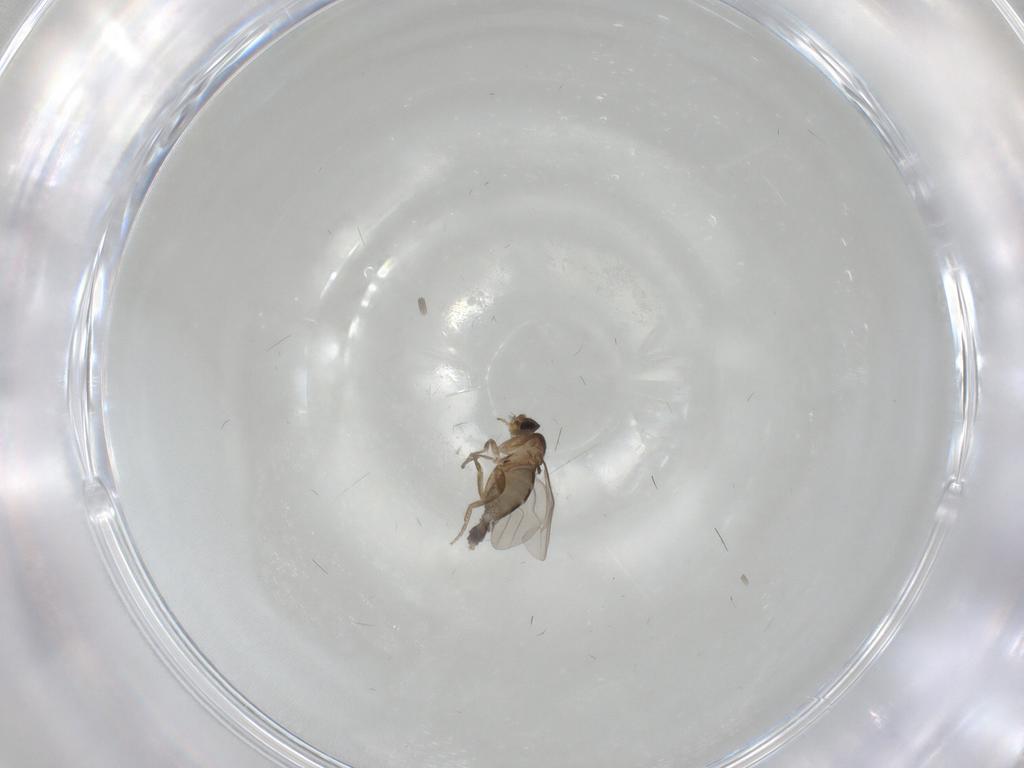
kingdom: Animalia
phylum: Arthropoda
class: Insecta
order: Diptera
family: Phoridae
